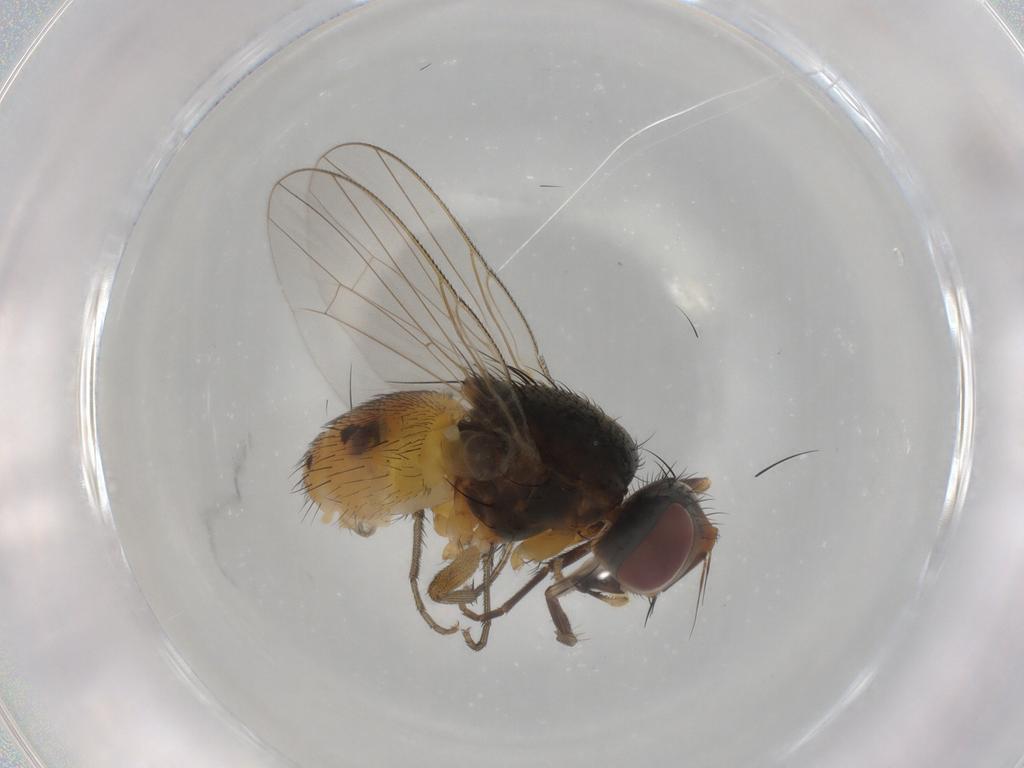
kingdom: Animalia
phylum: Arthropoda
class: Insecta
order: Diptera
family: Muscidae
